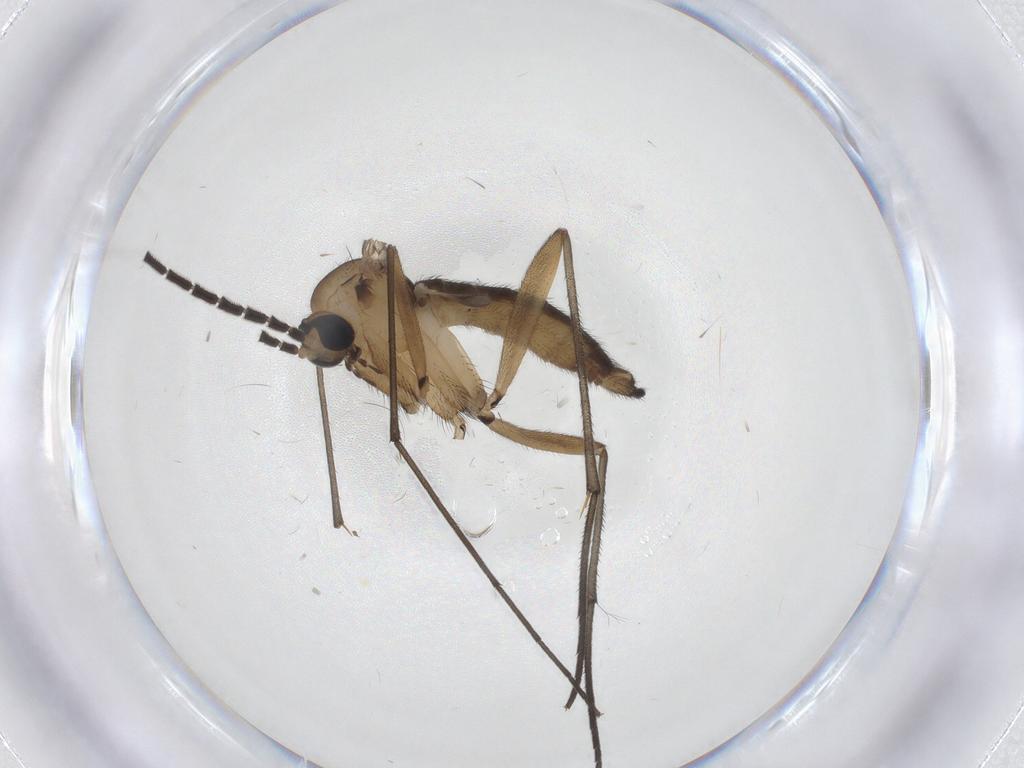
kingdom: Animalia
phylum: Arthropoda
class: Insecta
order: Diptera
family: Sciaridae
